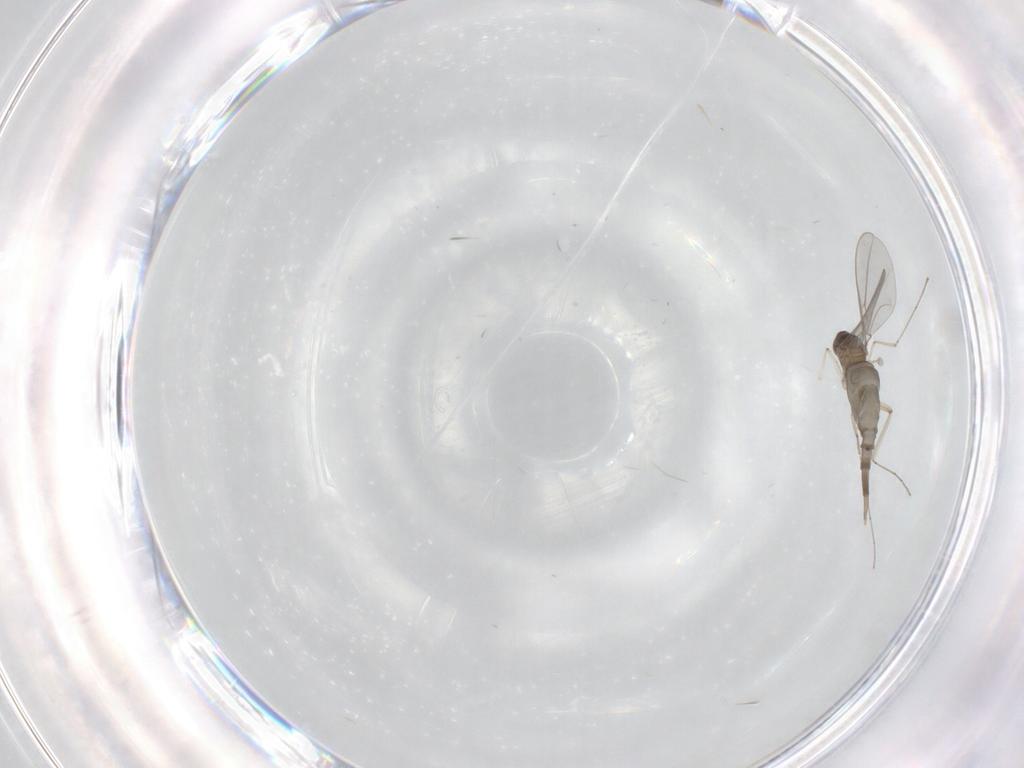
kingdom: Animalia
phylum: Arthropoda
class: Insecta
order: Diptera
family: Cecidomyiidae
